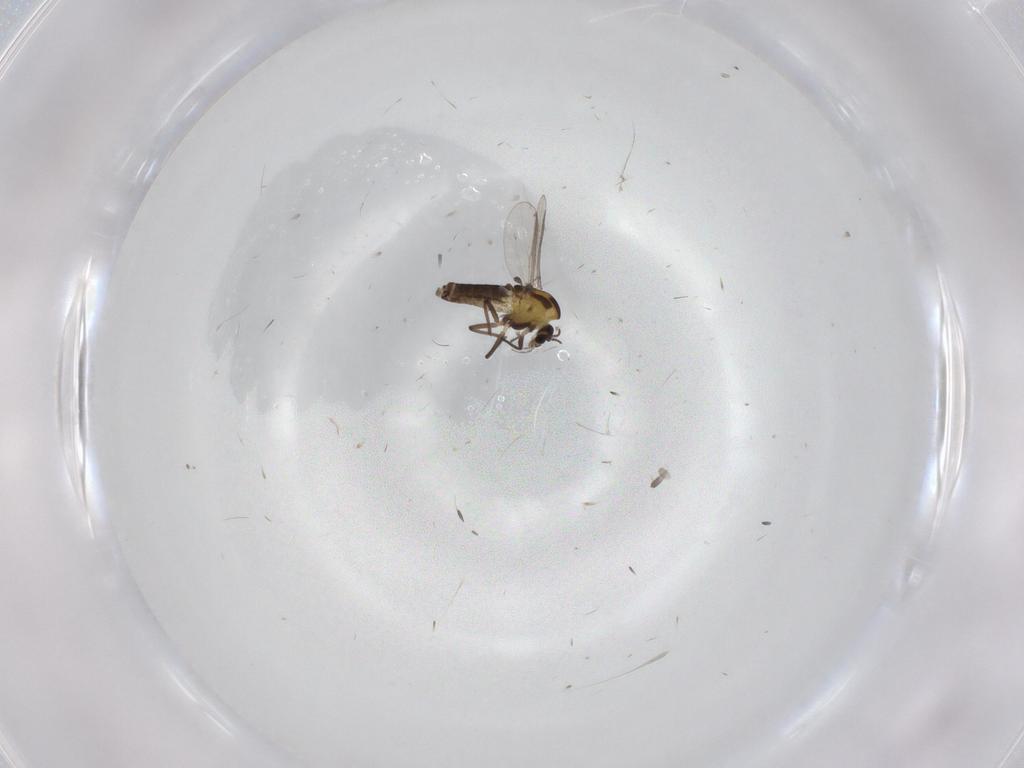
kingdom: Animalia
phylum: Arthropoda
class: Insecta
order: Diptera
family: Chironomidae
